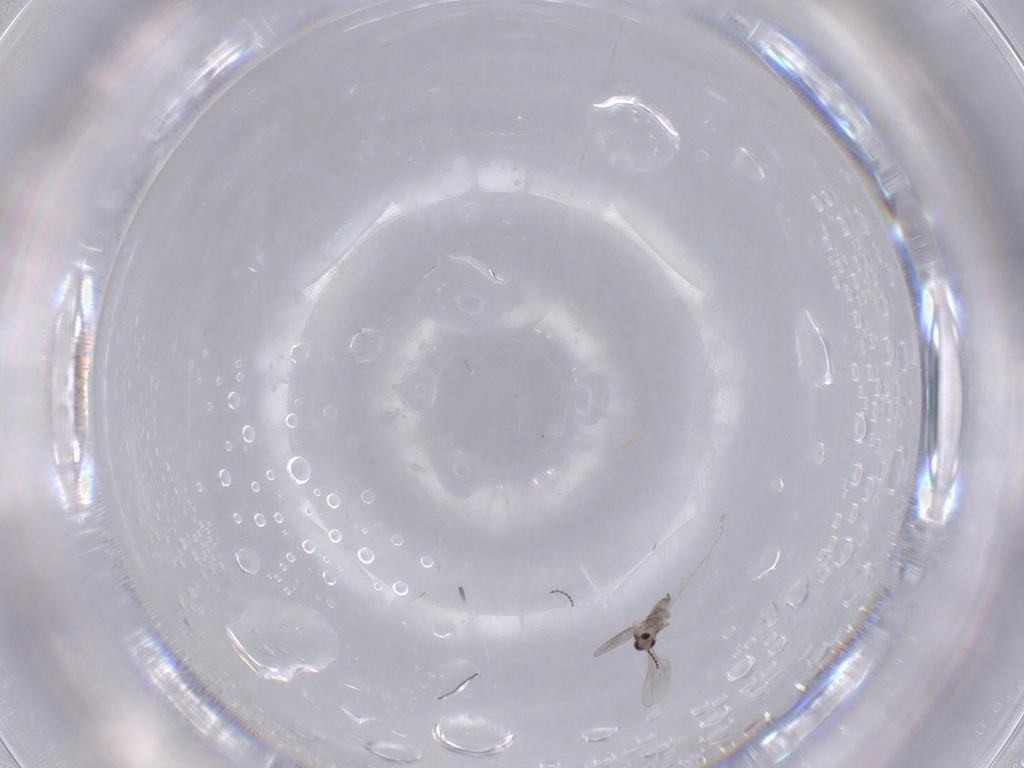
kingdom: Animalia
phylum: Arthropoda
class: Insecta
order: Diptera
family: Cecidomyiidae
